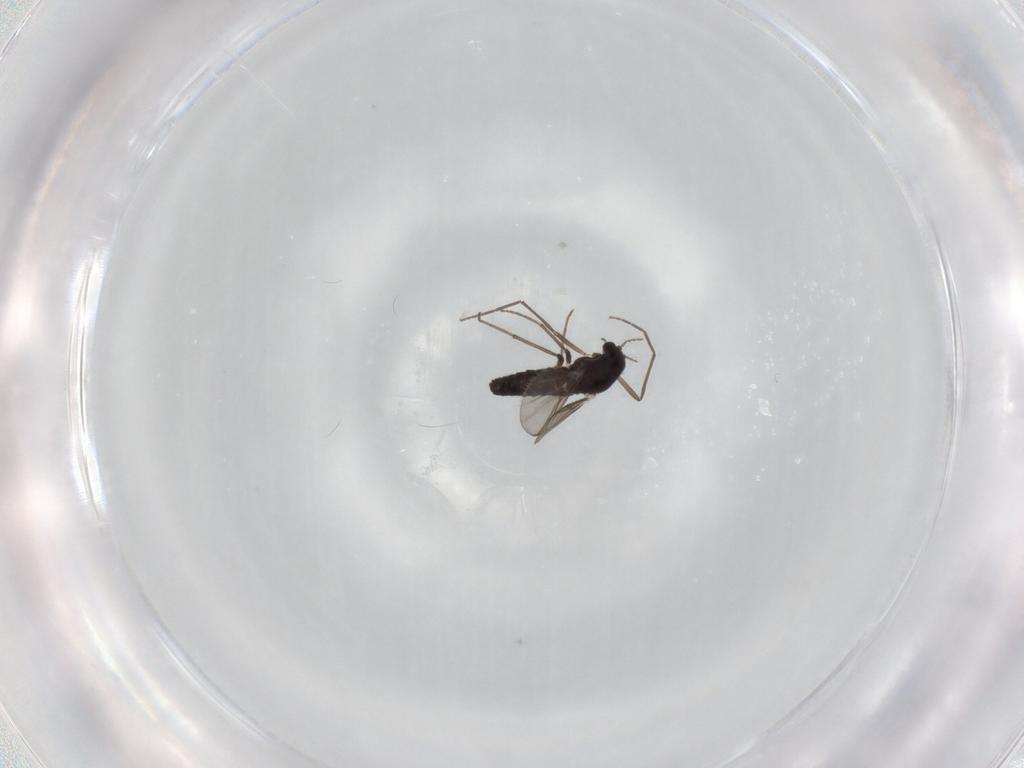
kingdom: Animalia
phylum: Arthropoda
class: Insecta
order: Diptera
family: Chironomidae
